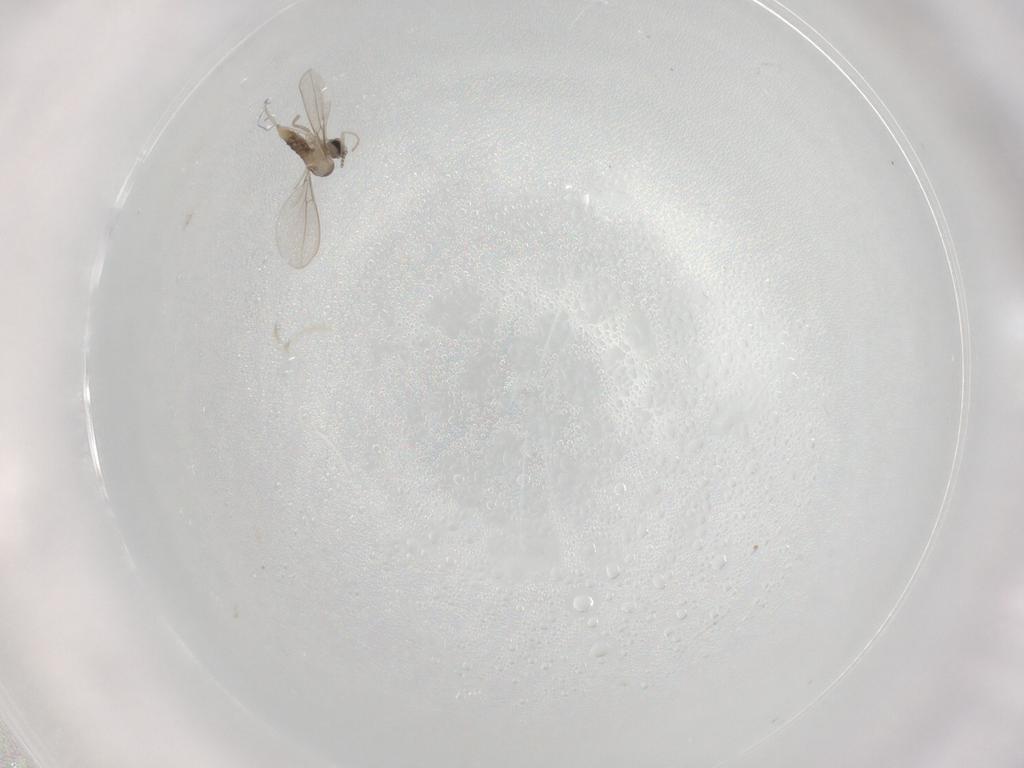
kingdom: Animalia
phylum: Arthropoda
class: Insecta
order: Diptera
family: Cecidomyiidae
